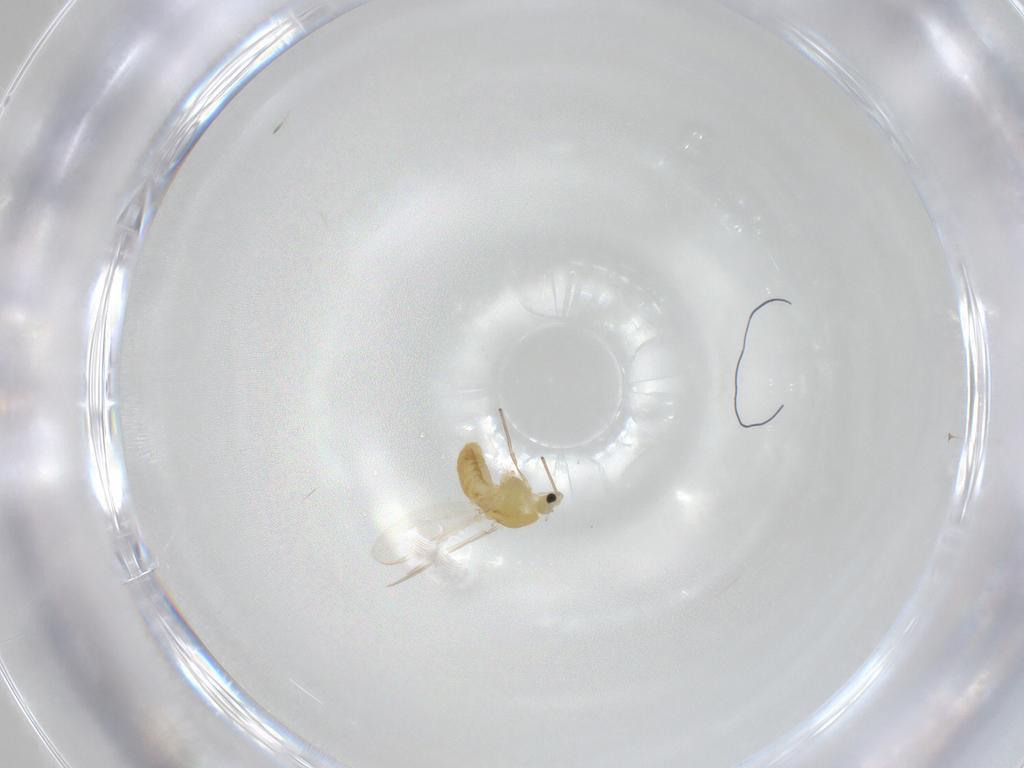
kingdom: Animalia
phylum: Arthropoda
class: Insecta
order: Diptera
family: Chironomidae
